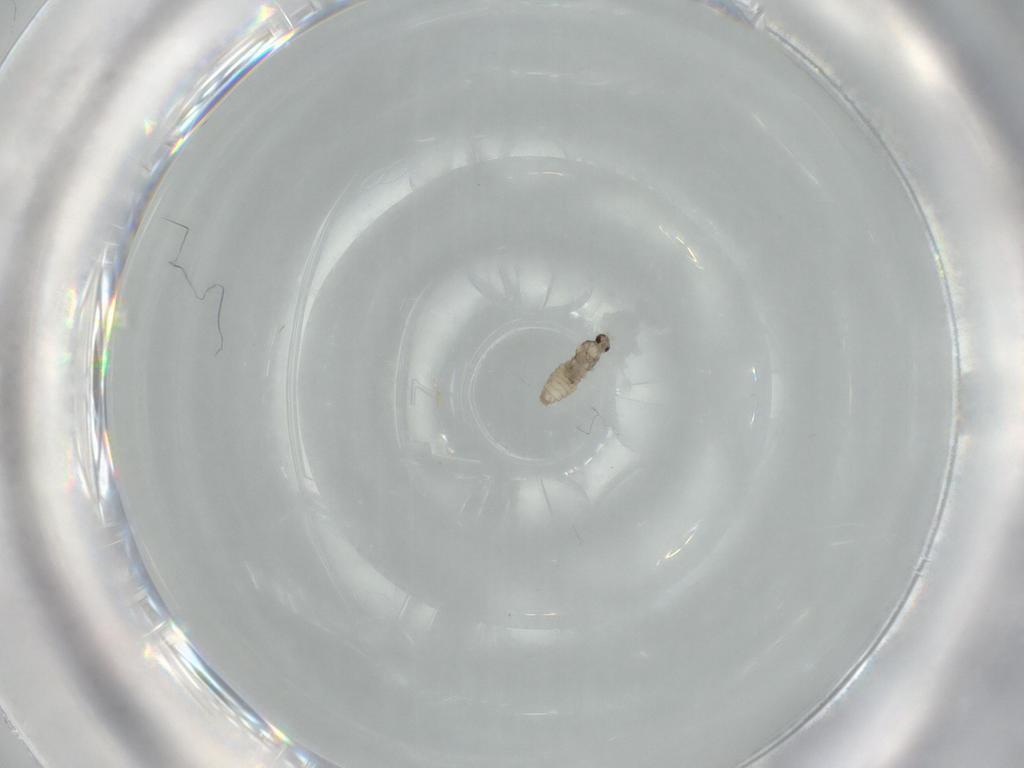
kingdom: Animalia
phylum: Arthropoda
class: Insecta
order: Diptera
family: Cecidomyiidae
